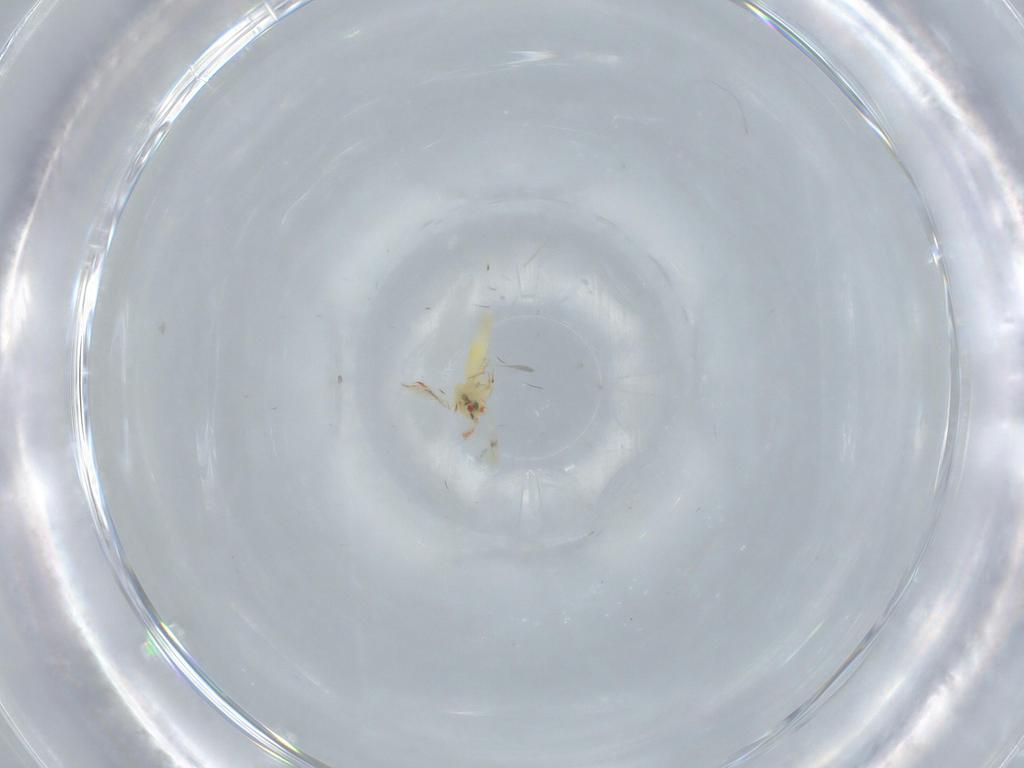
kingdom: Animalia
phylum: Arthropoda
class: Insecta
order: Hemiptera
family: Aleyrodidae
